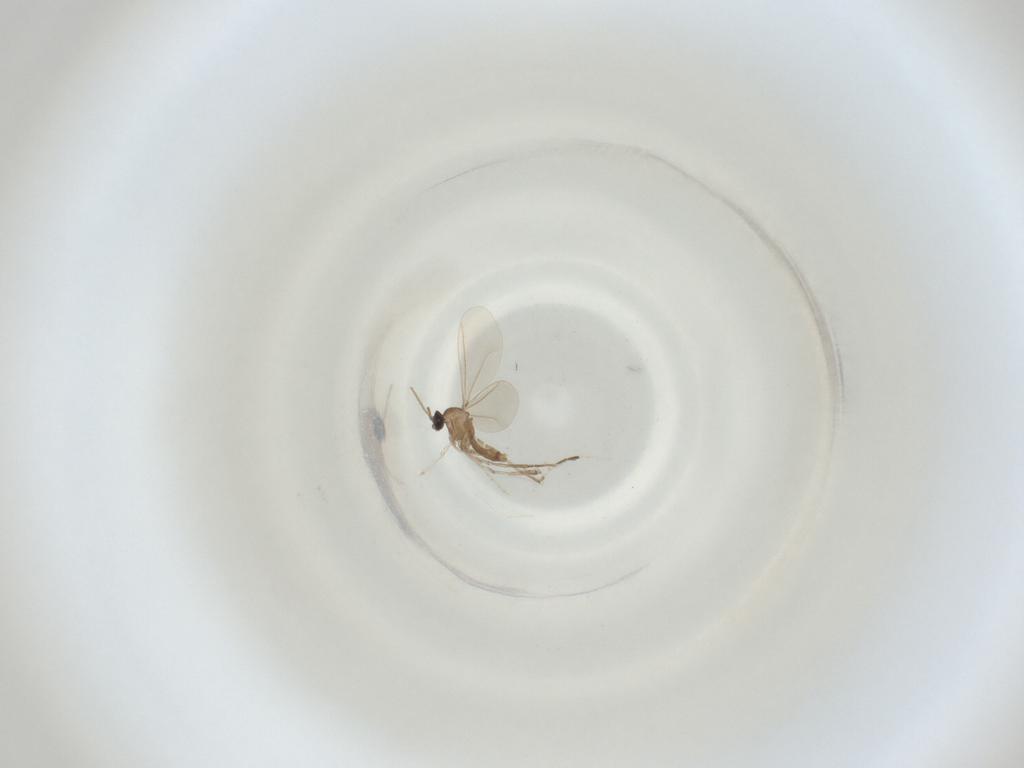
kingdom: Animalia
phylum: Arthropoda
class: Insecta
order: Diptera
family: Cecidomyiidae
